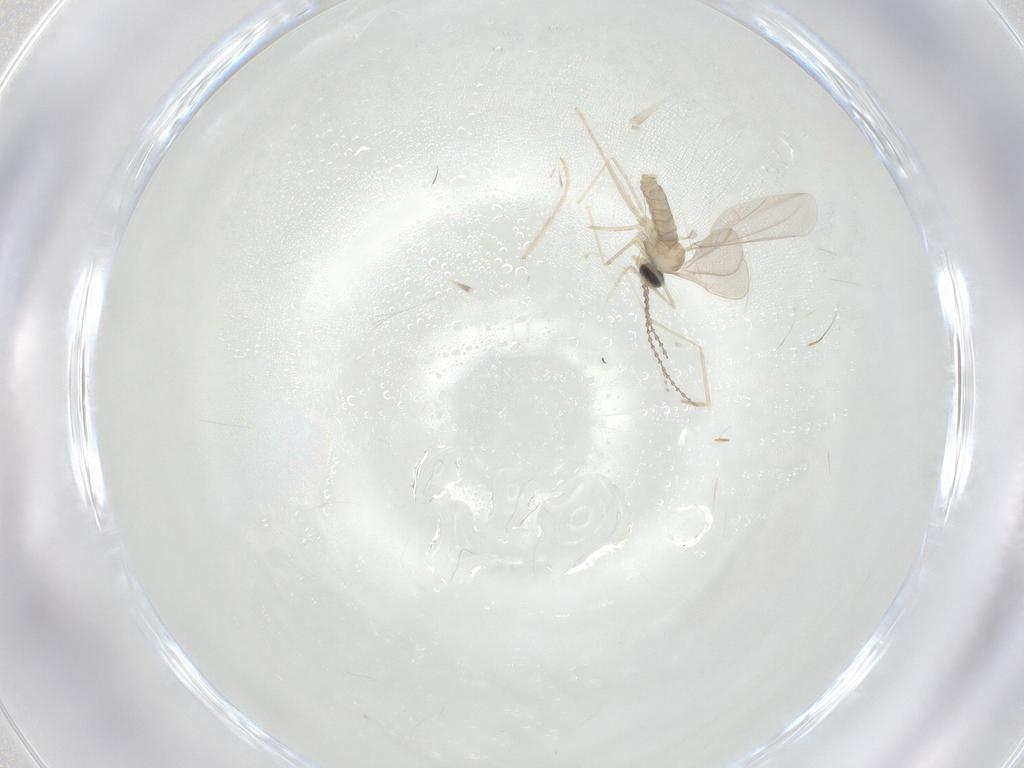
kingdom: Animalia
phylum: Arthropoda
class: Insecta
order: Diptera
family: Cecidomyiidae
